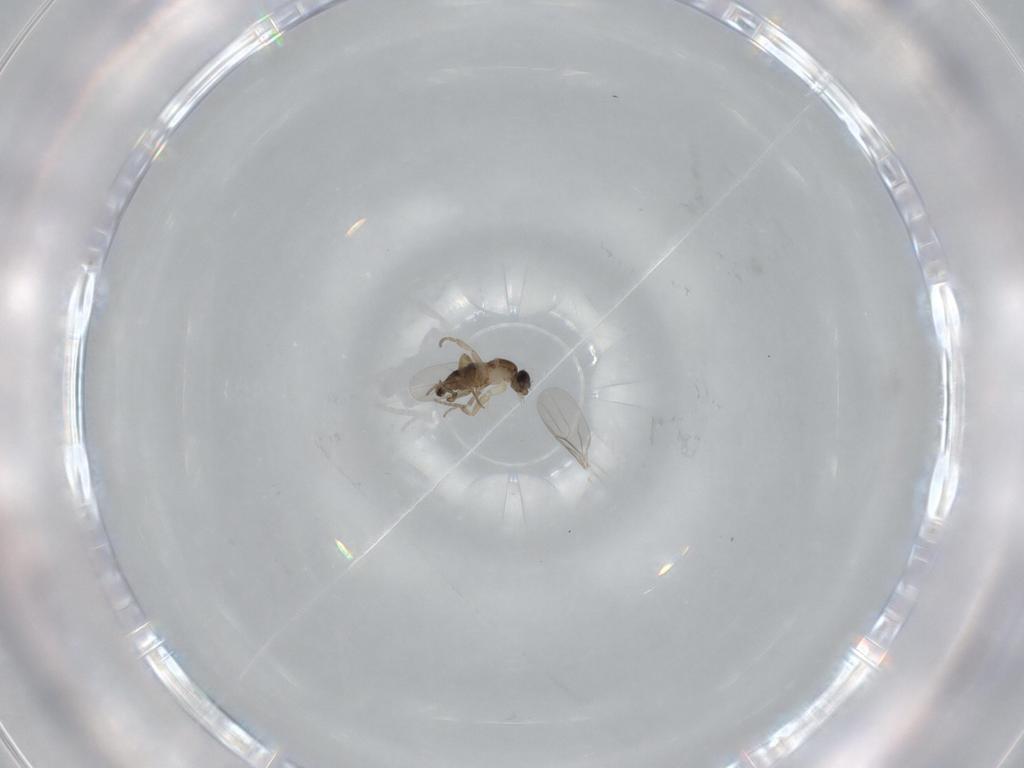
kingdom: Animalia
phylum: Arthropoda
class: Insecta
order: Diptera
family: Phoridae
